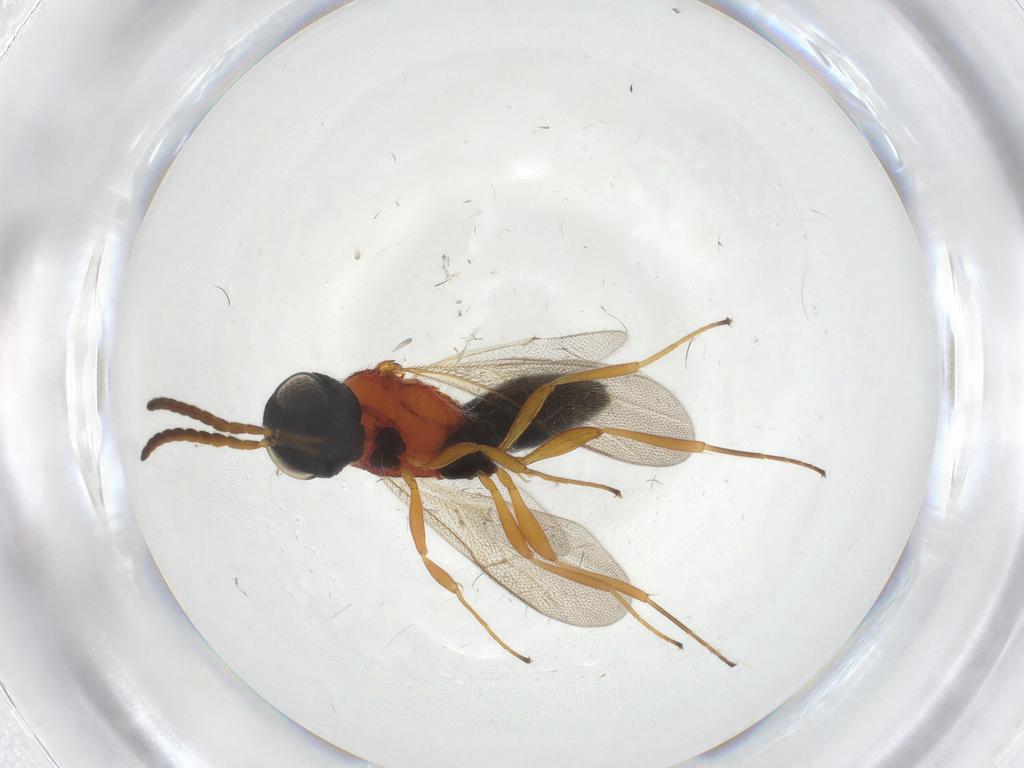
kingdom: Animalia
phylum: Arthropoda
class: Insecta
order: Hymenoptera
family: Scelionidae
